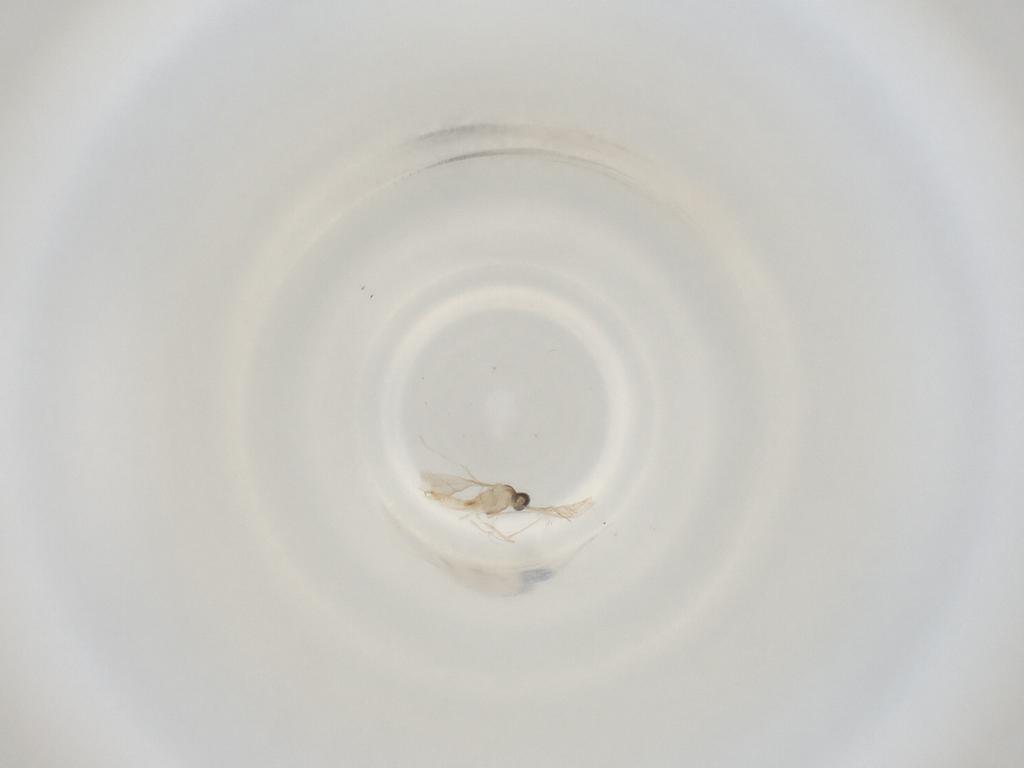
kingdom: Animalia
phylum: Arthropoda
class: Insecta
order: Diptera
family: Cecidomyiidae
